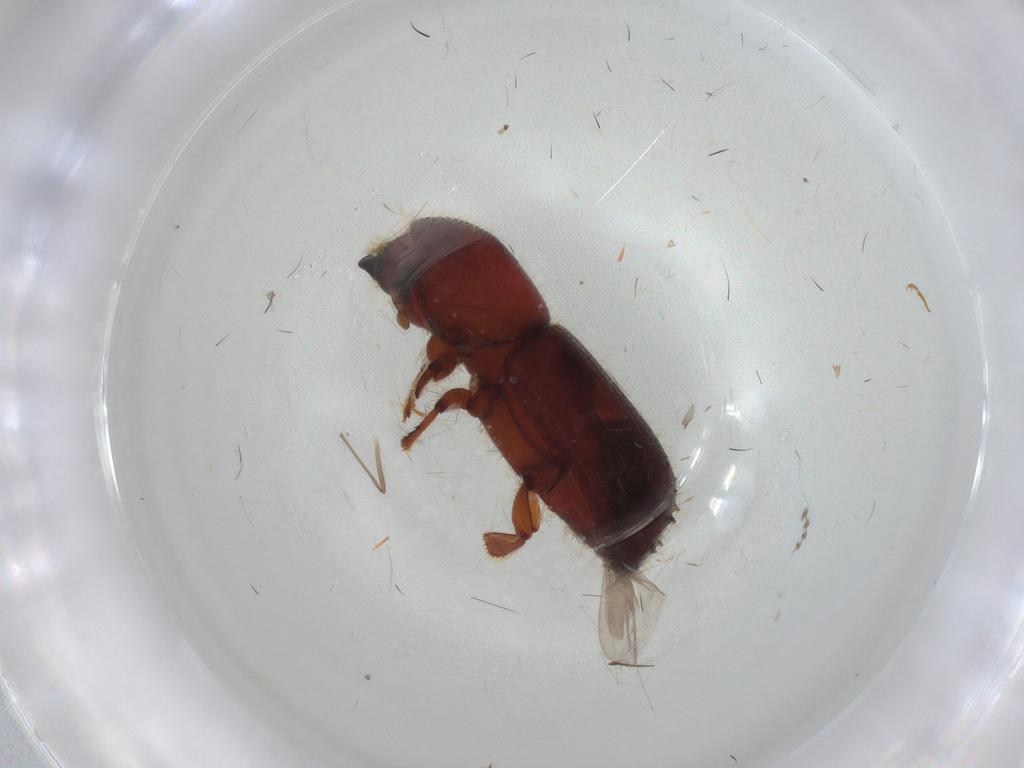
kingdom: Animalia
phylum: Arthropoda
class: Insecta
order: Coleoptera
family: Curculionidae
